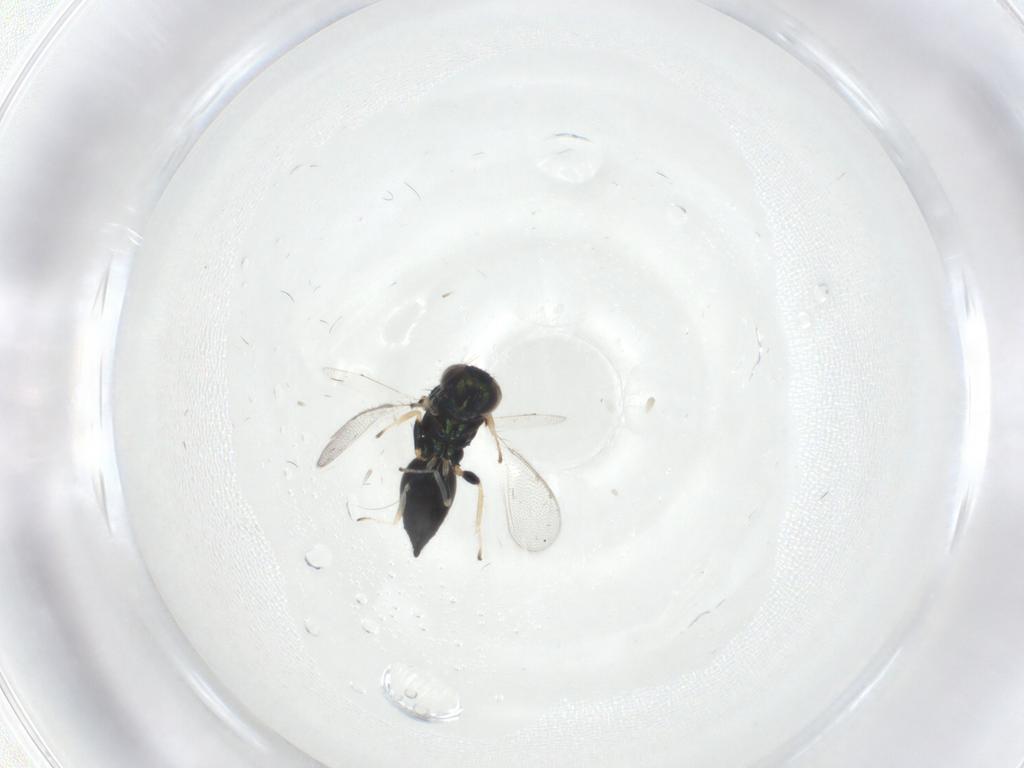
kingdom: Animalia
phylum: Arthropoda
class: Insecta
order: Hymenoptera
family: Eulophidae
